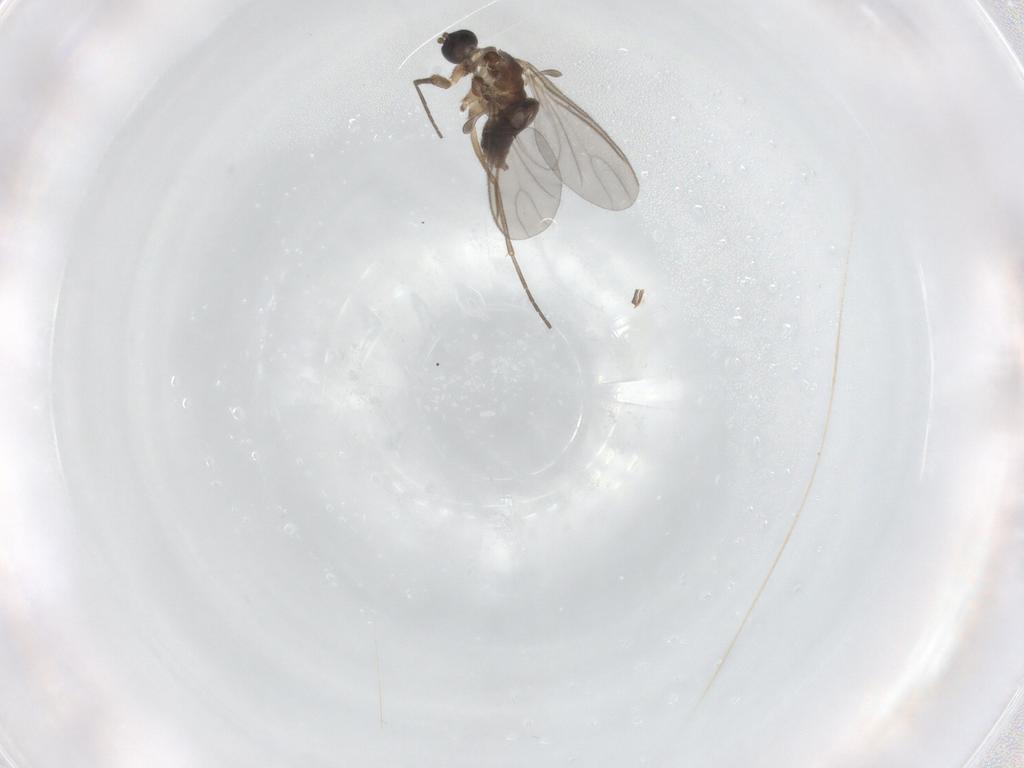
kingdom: Animalia
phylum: Arthropoda
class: Insecta
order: Diptera
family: Sciaridae
